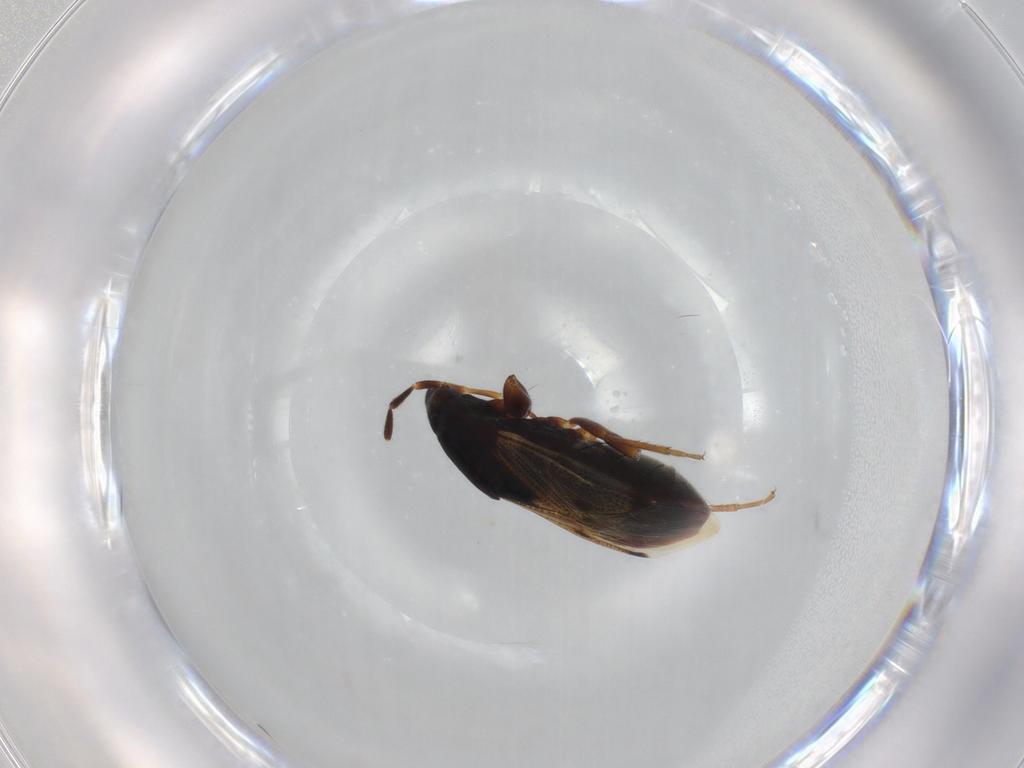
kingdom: Animalia
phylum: Arthropoda
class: Insecta
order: Hemiptera
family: Rhyparochromidae
